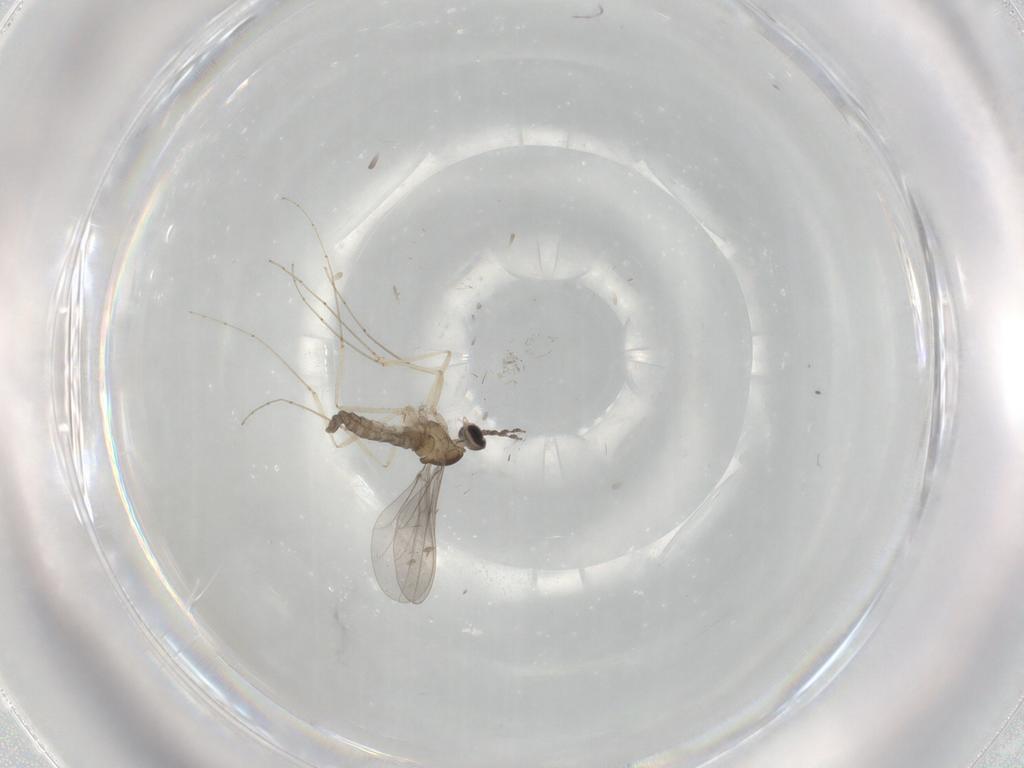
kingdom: Animalia
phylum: Arthropoda
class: Insecta
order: Diptera
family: Cecidomyiidae
